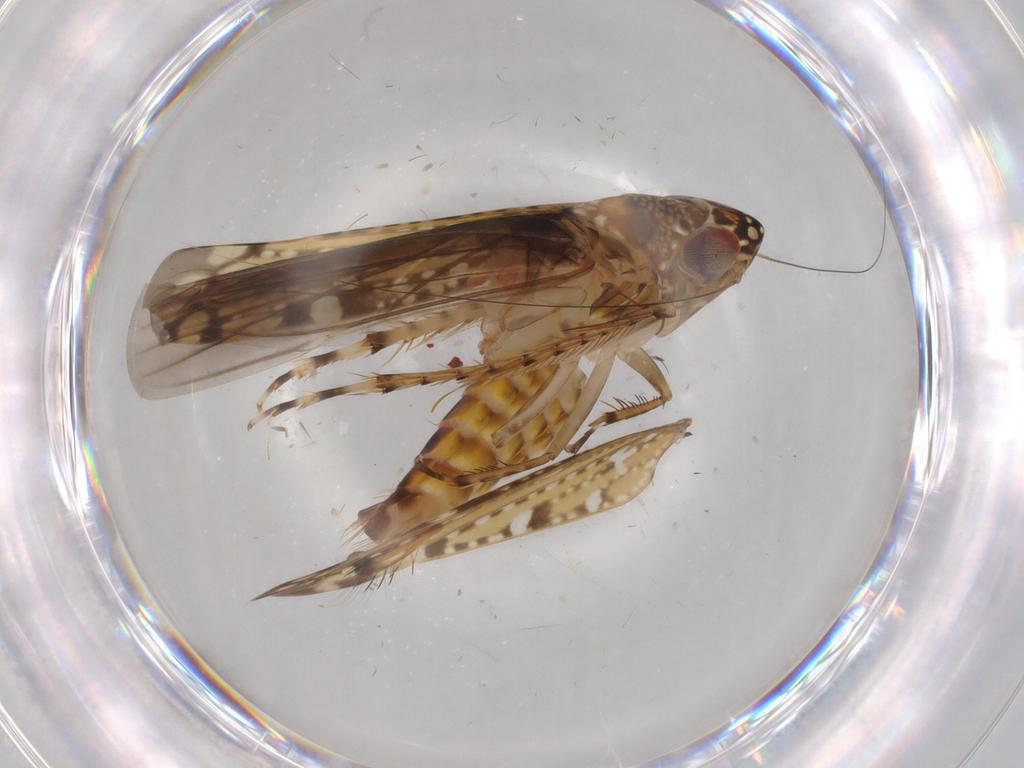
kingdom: Animalia
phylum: Arthropoda
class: Insecta
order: Hemiptera
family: Cicadellidae
